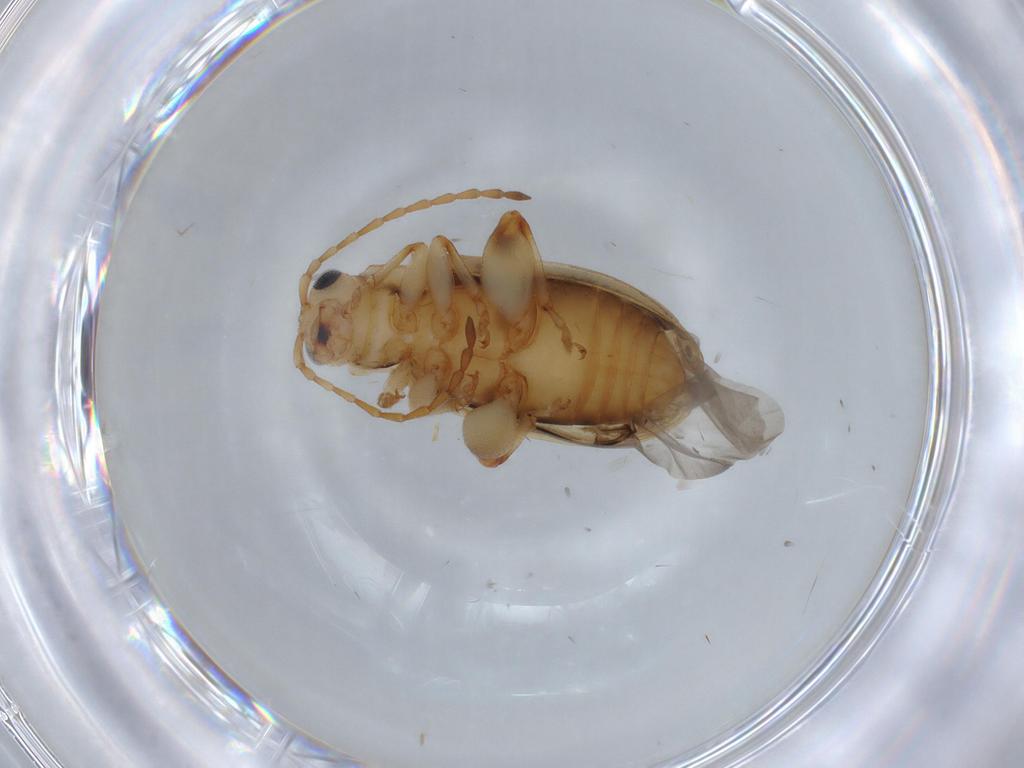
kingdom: Animalia
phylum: Arthropoda
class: Insecta
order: Coleoptera
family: Chrysomelidae
